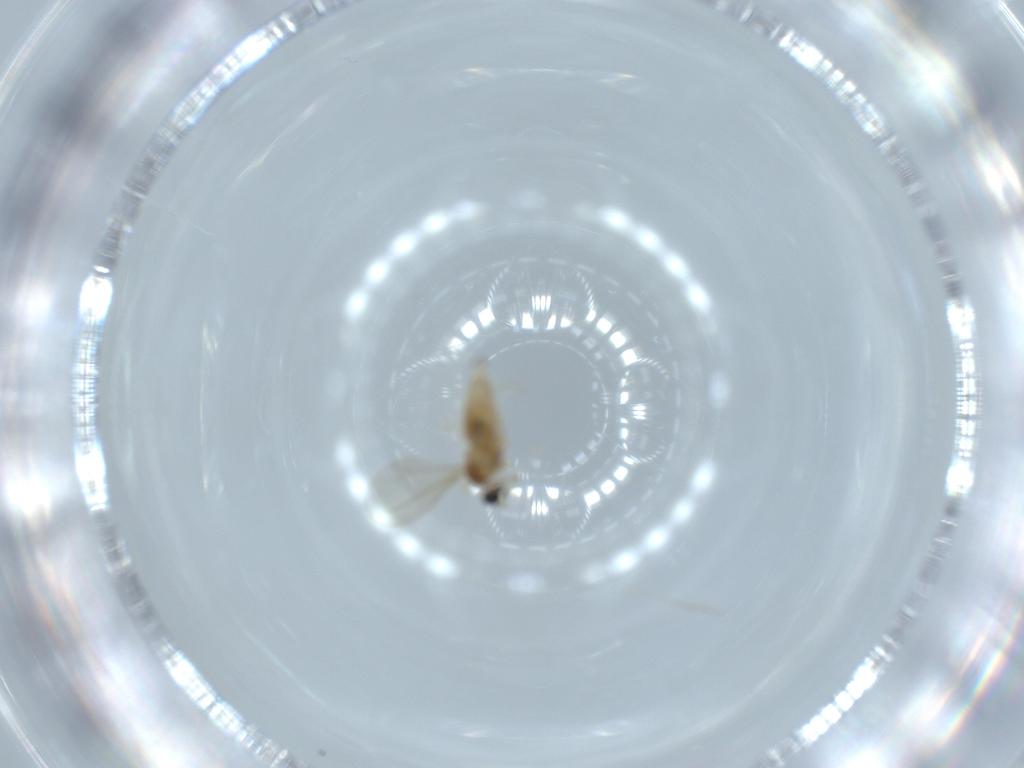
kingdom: Animalia
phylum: Arthropoda
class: Insecta
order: Diptera
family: Cecidomyiidae
